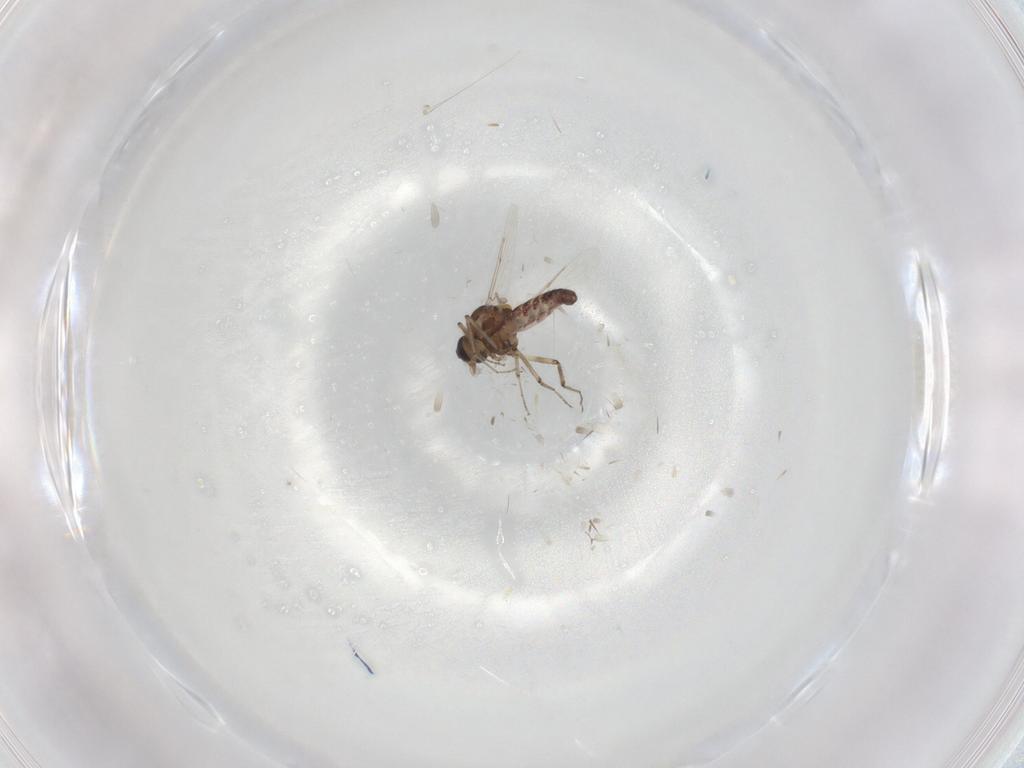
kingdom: Animalia
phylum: Arthropoda
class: Insecta
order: Diptera
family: Ceratopogonidae
